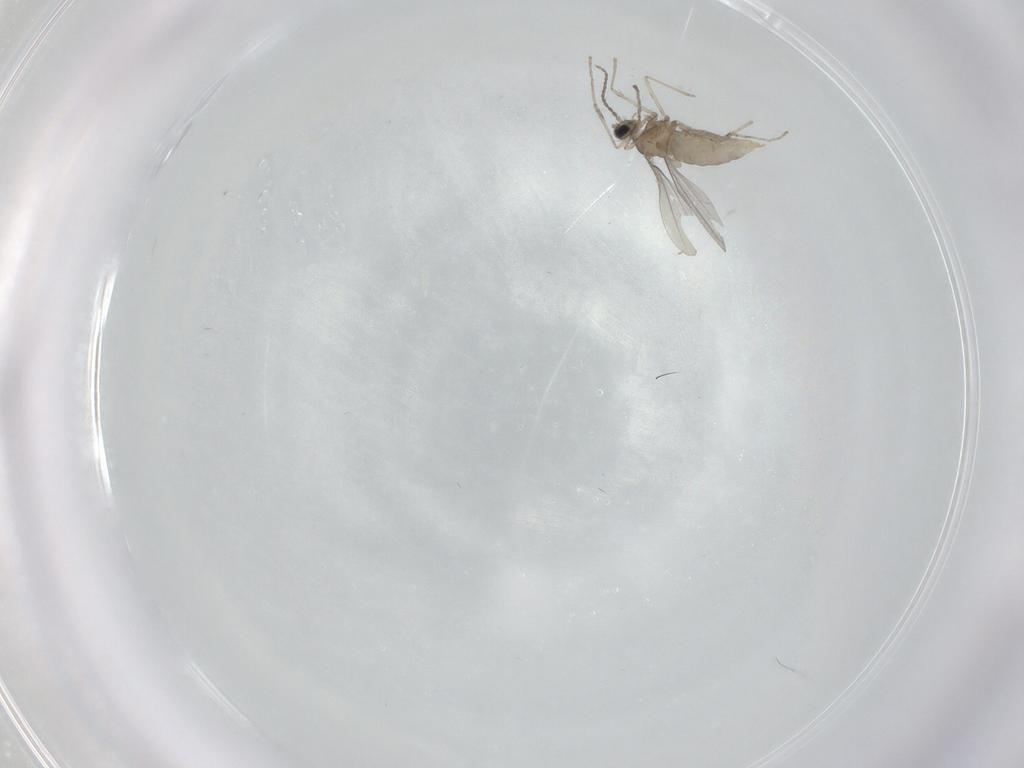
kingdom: Animalia
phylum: Arthropoda
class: Insecta
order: Diptera
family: Cecidomyiidae
